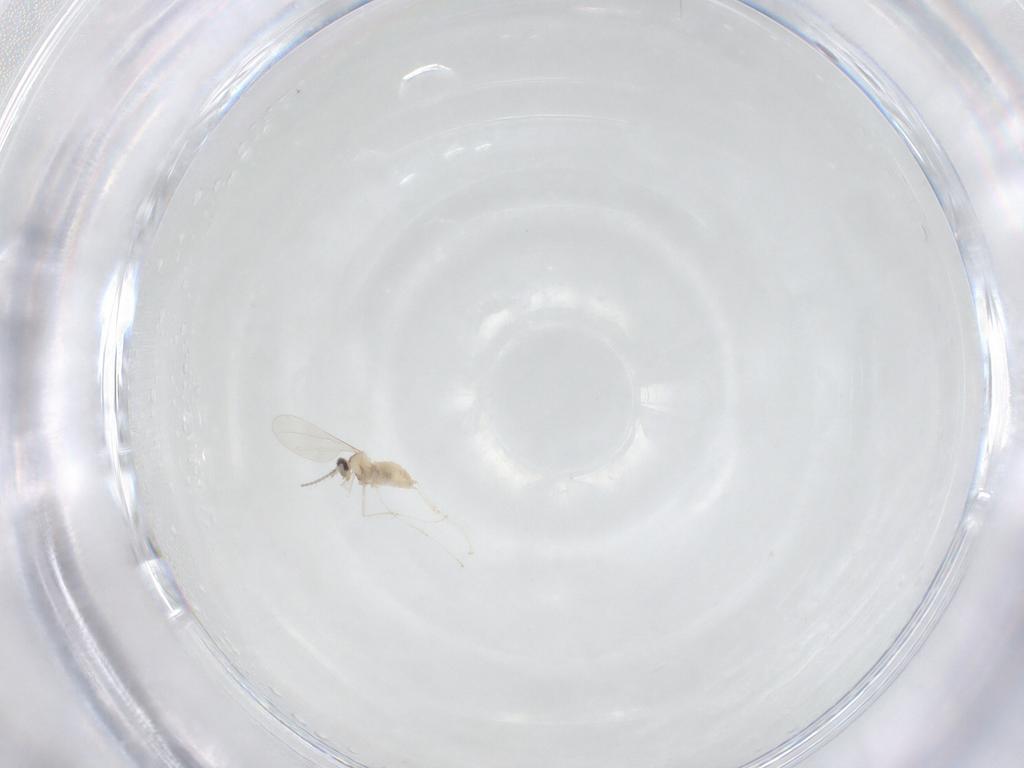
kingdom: Animalia
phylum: Arthropoda
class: Insecta
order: Diptera
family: Cecidomyiidae
